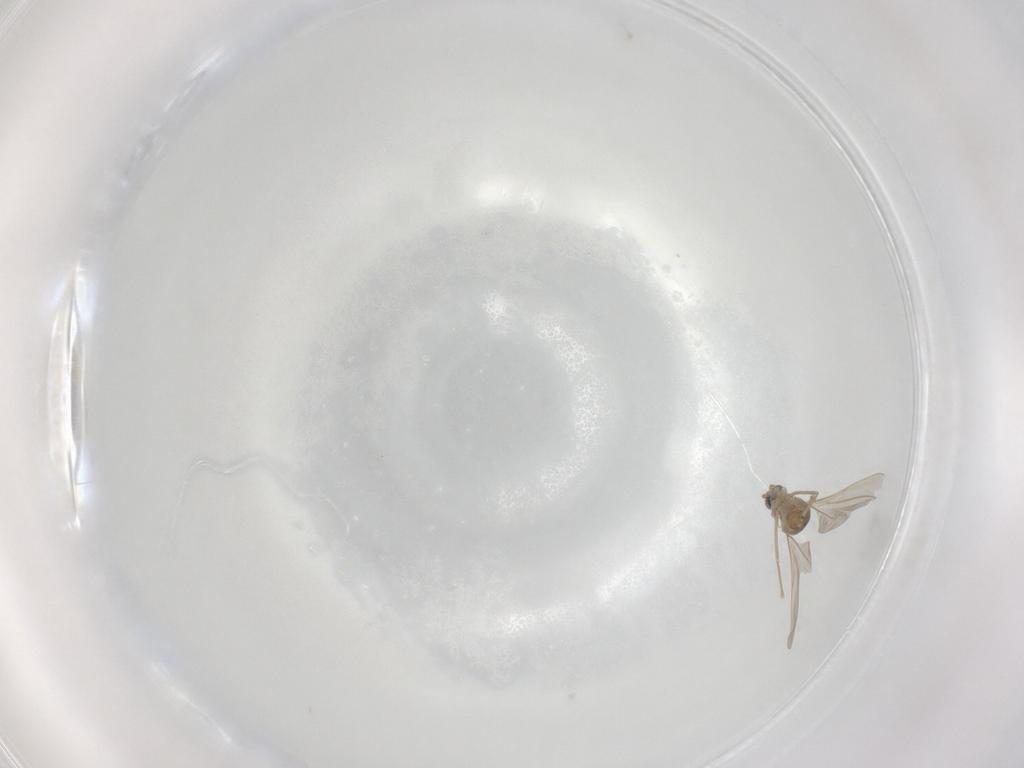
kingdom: Animalia
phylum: Arthropoda
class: Insecta
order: Diptera
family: Cecidomyiidae
